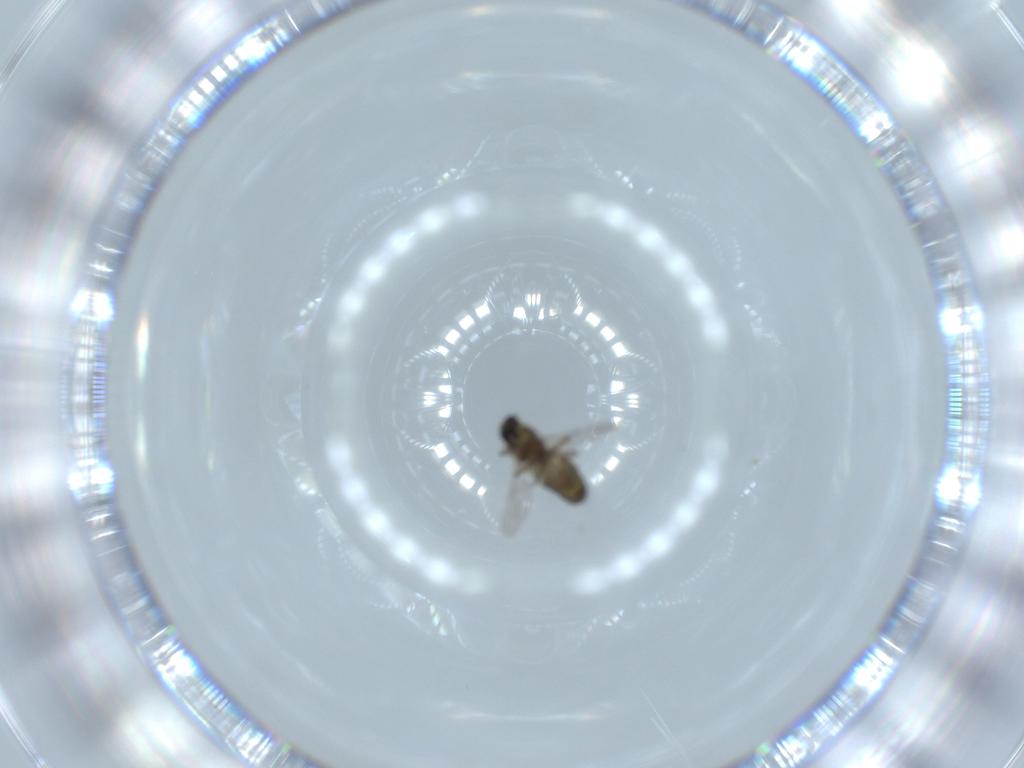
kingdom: Animalia
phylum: Arthropoda
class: Insecta
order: Diptera
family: Ceratopogonidae
